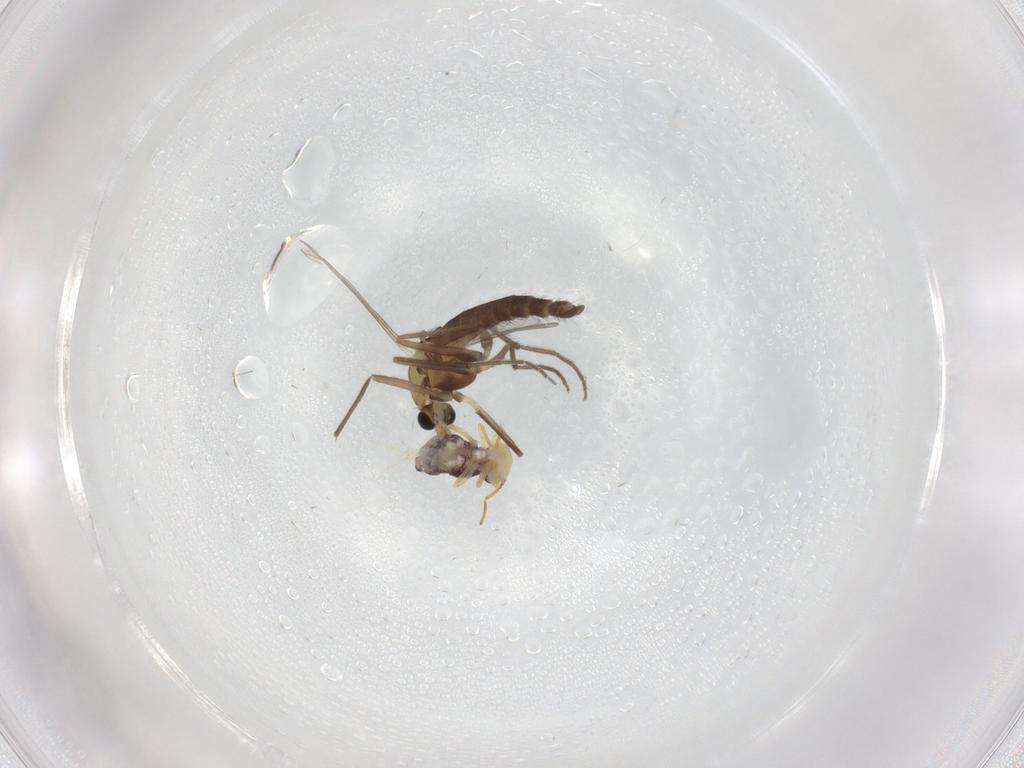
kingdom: Animalia
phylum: Arthropoda
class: Insecta
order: Diptera
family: Chironomidae
